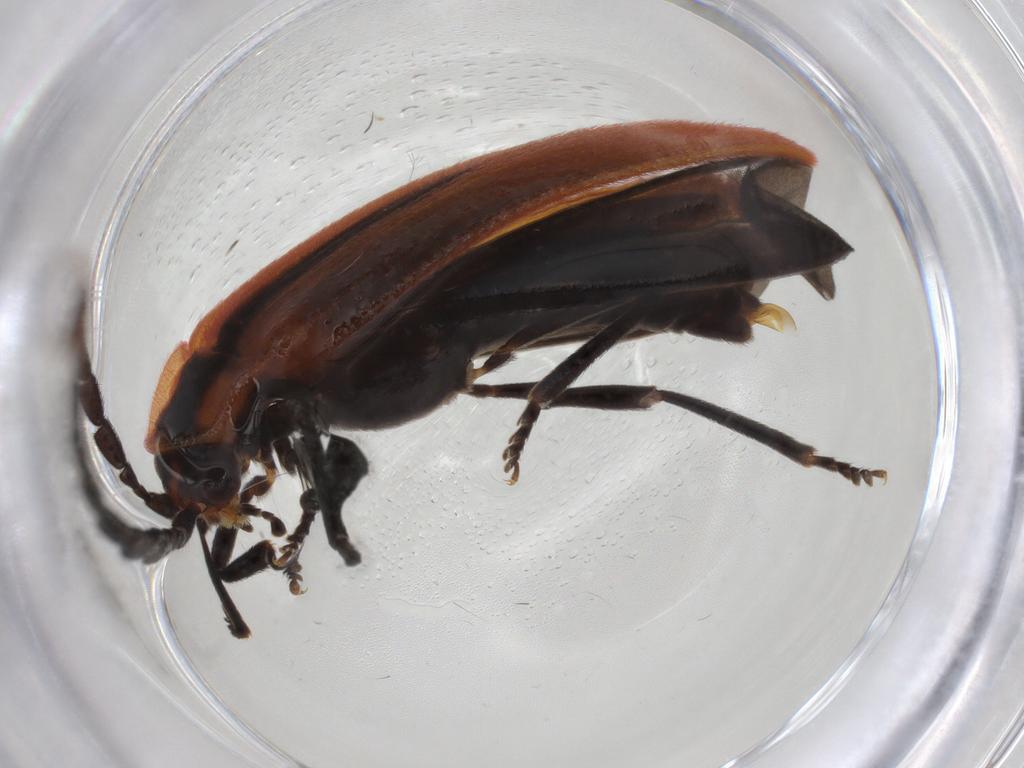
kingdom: Animalia
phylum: Arthropoda
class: Insecta
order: Coleoptera
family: Lycidae
